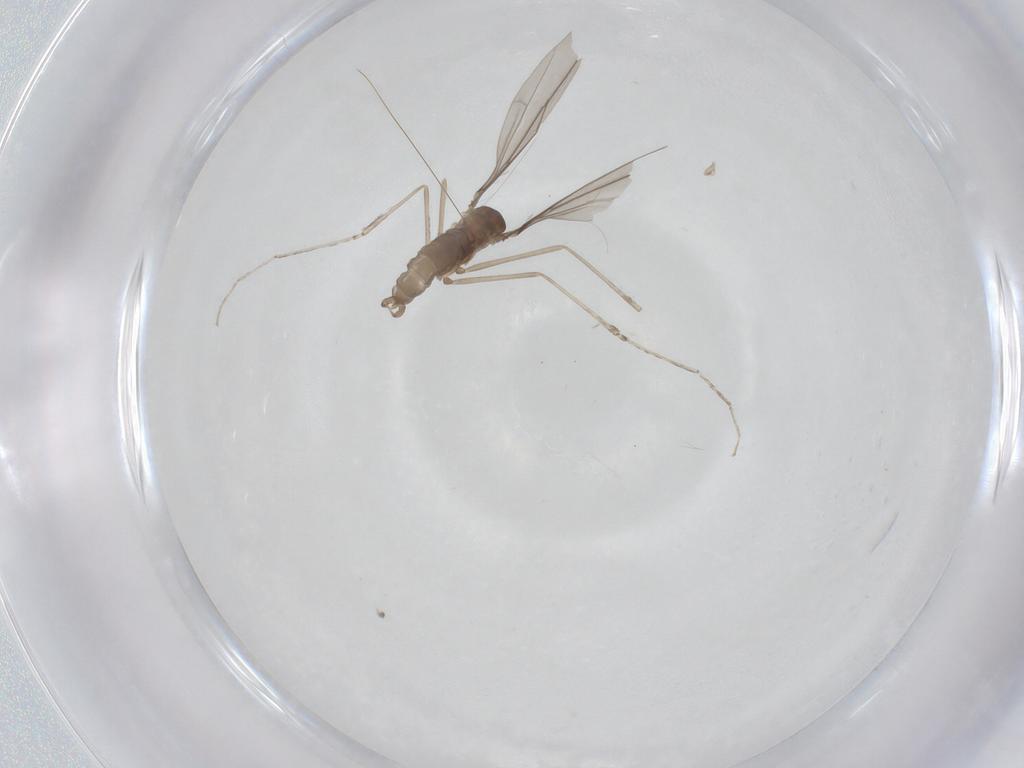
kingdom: Animalia
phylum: Arthropoda
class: Insecta
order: Diptera
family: Cecidomyiidae
